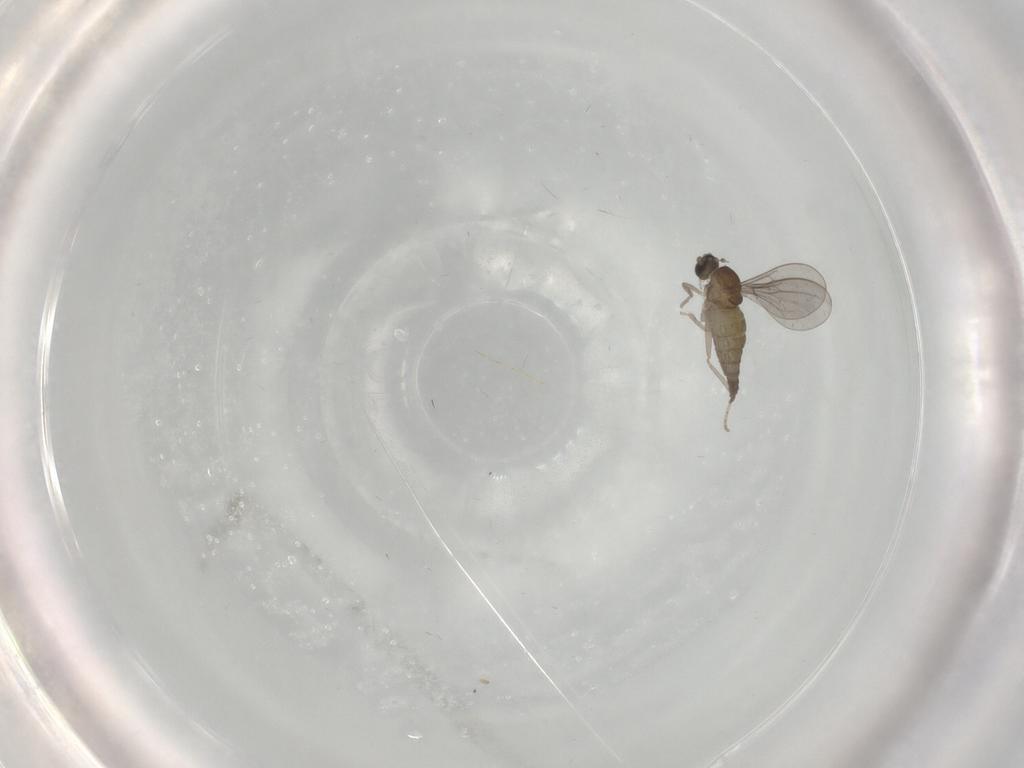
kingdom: Animalia
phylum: Arthropoda
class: Insecta
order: Diptera
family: Cecidomyiidae
